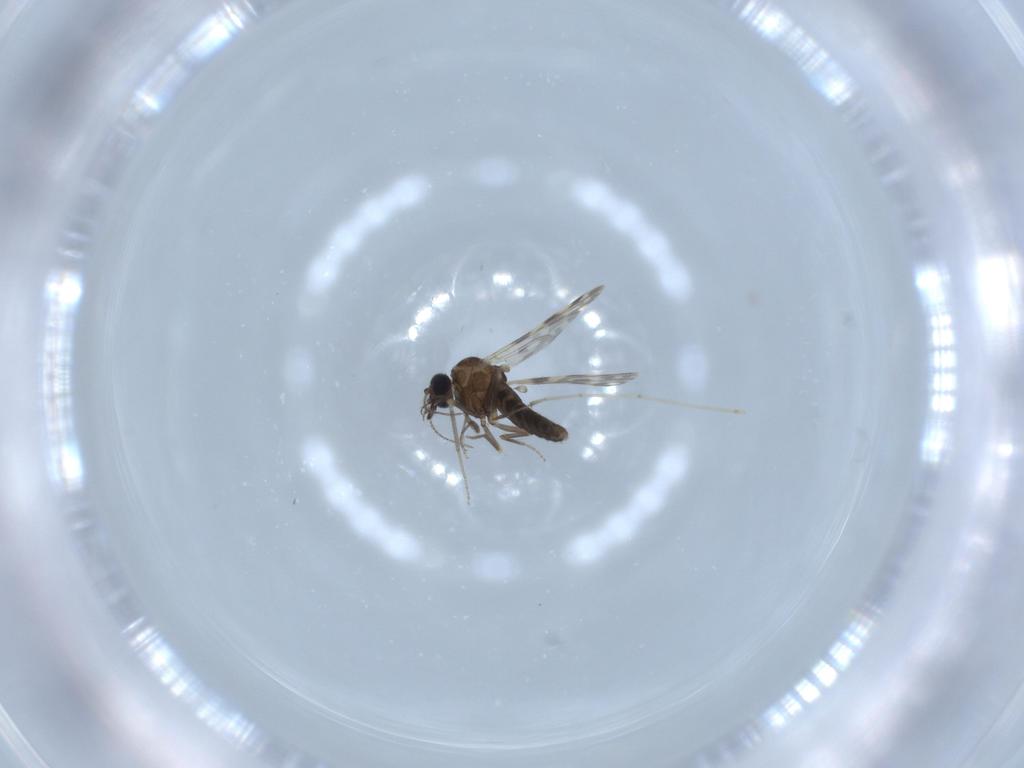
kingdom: Animalia
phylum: Arthropoda
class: Insecta
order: Diptera
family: Ceratopogonidae
